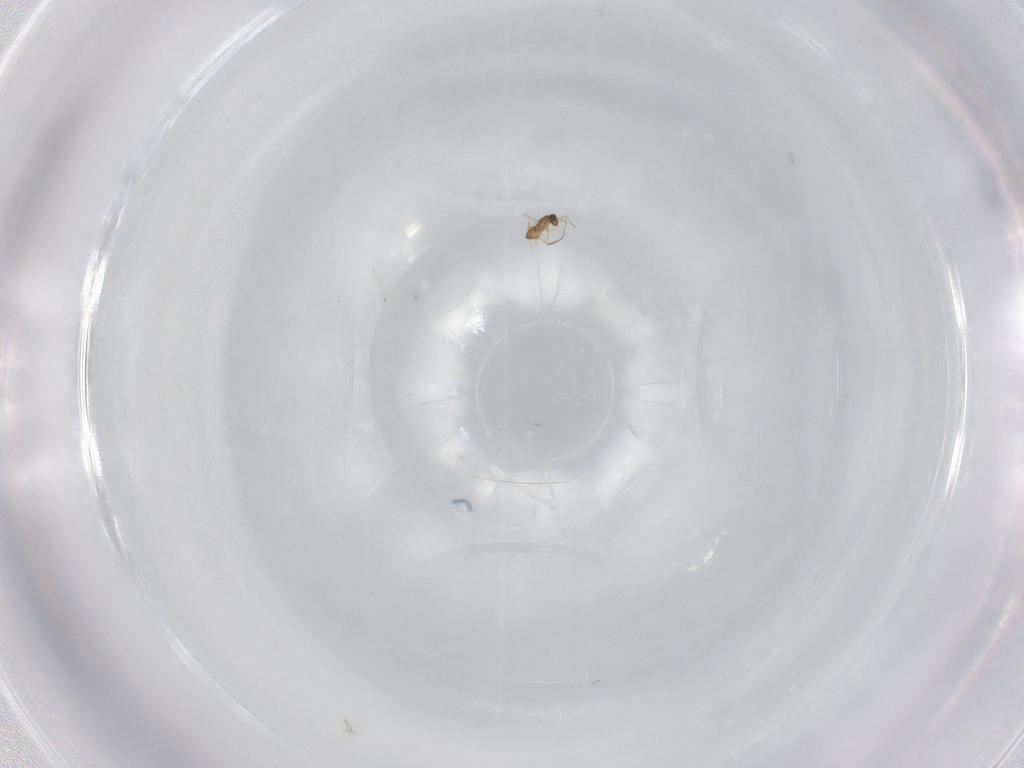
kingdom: Animalia
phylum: Arthropoda
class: Insecta
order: Hymenoptera
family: Mymaridae
